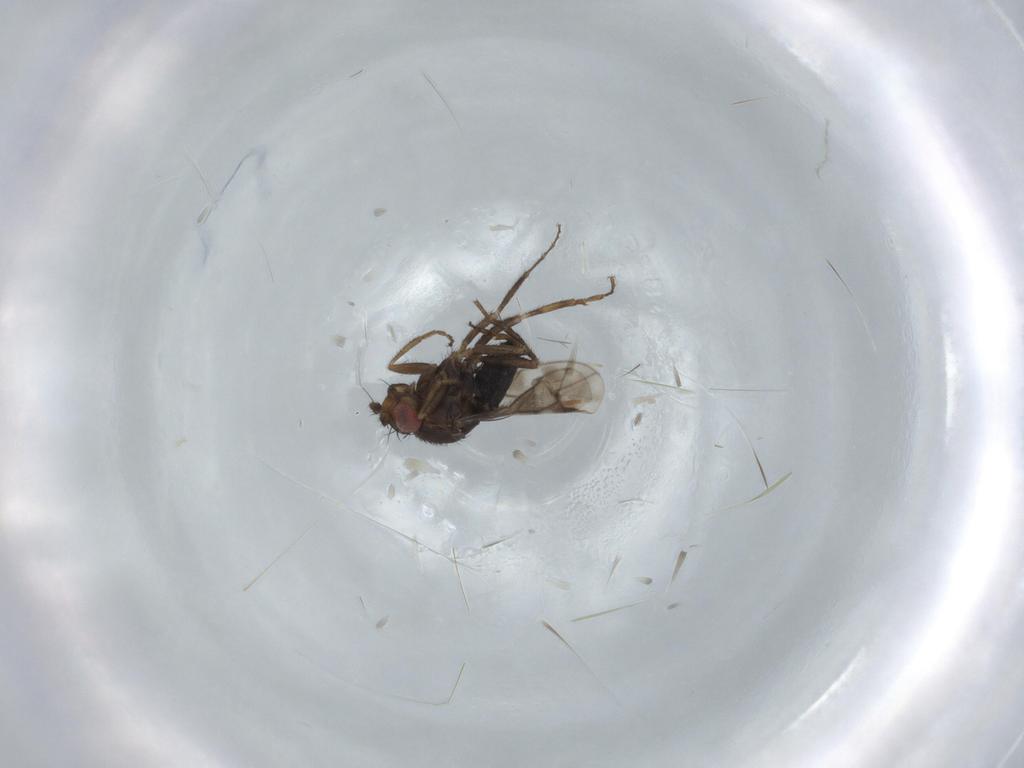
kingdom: Animalia
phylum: Arthropoda
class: Insecta
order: Diptera
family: Sphaeroceridae
